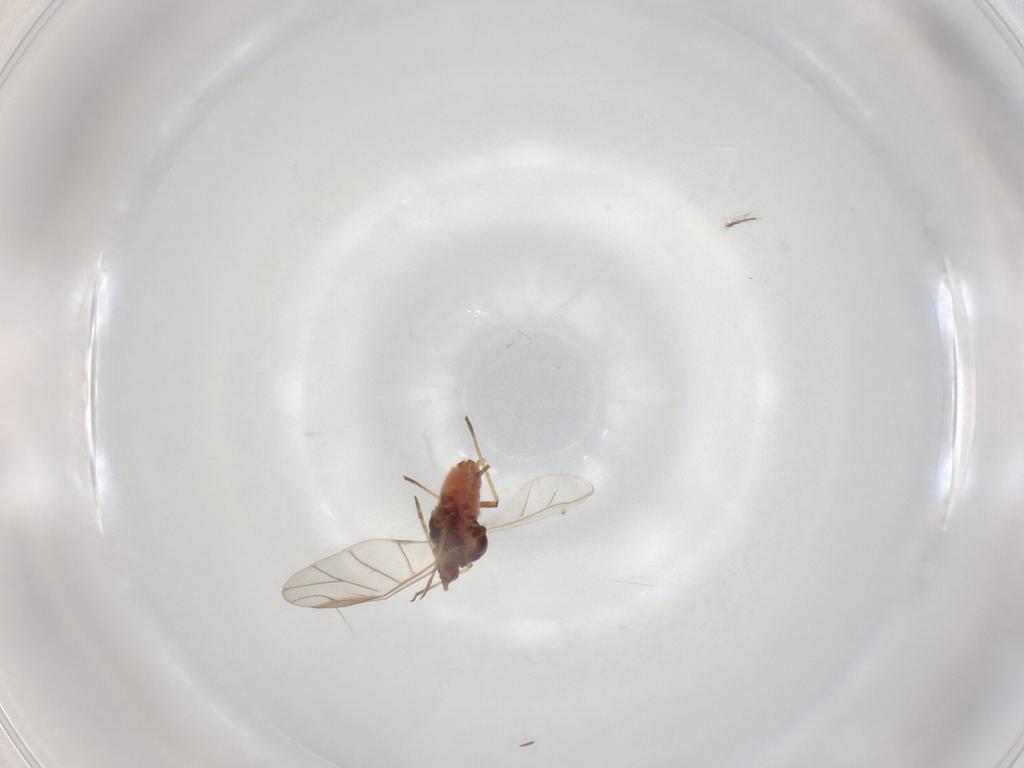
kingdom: Animalia
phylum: Arthropoda
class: Insecta
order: Hemiptera
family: Aphididae
